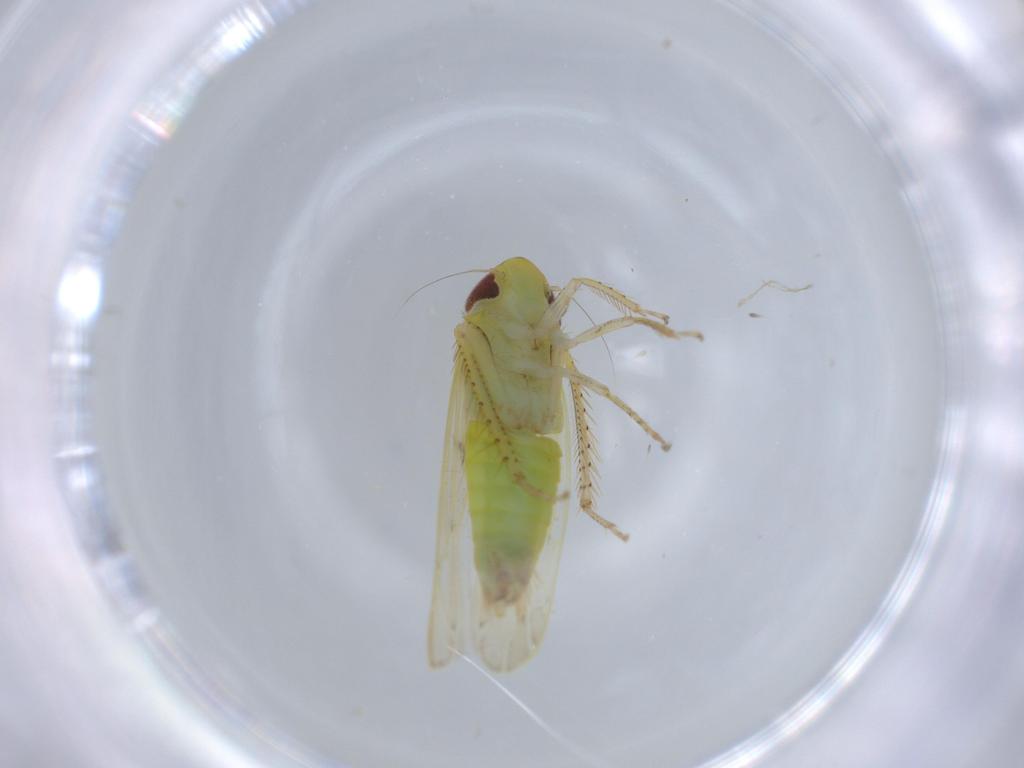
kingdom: Animalia
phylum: Arthropoda
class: Insecta
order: Hemiptera
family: Cicadellidae
